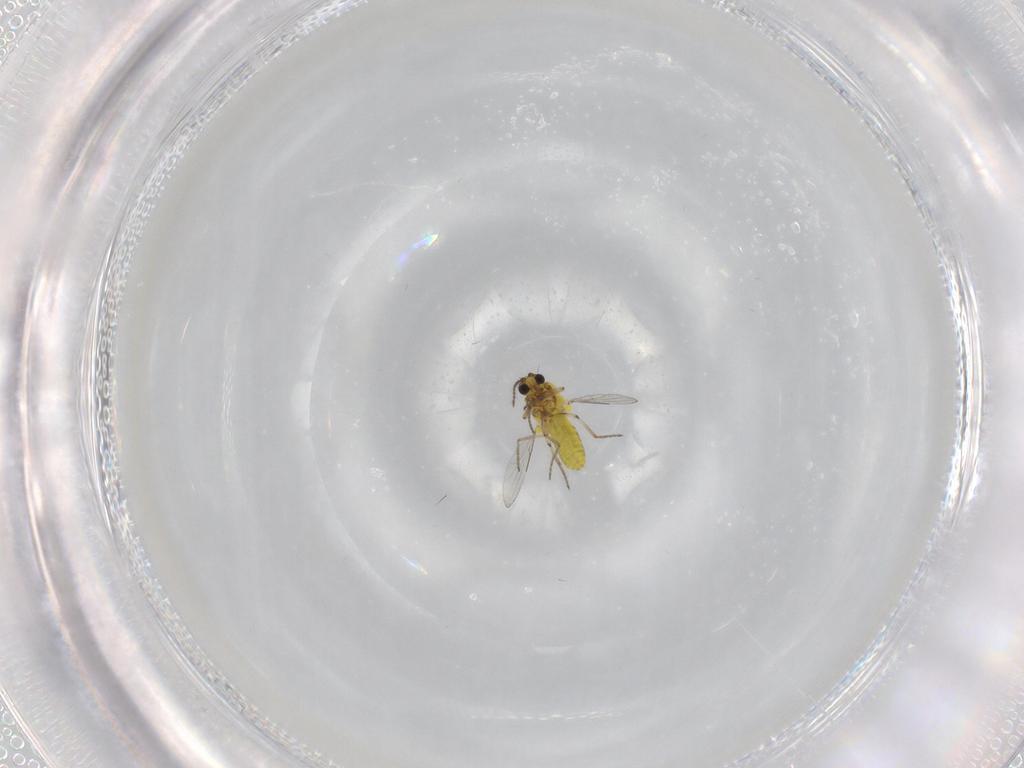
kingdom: Animalia
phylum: Arthropoda
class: Insecta
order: Diptera
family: Ceratopogonidae
